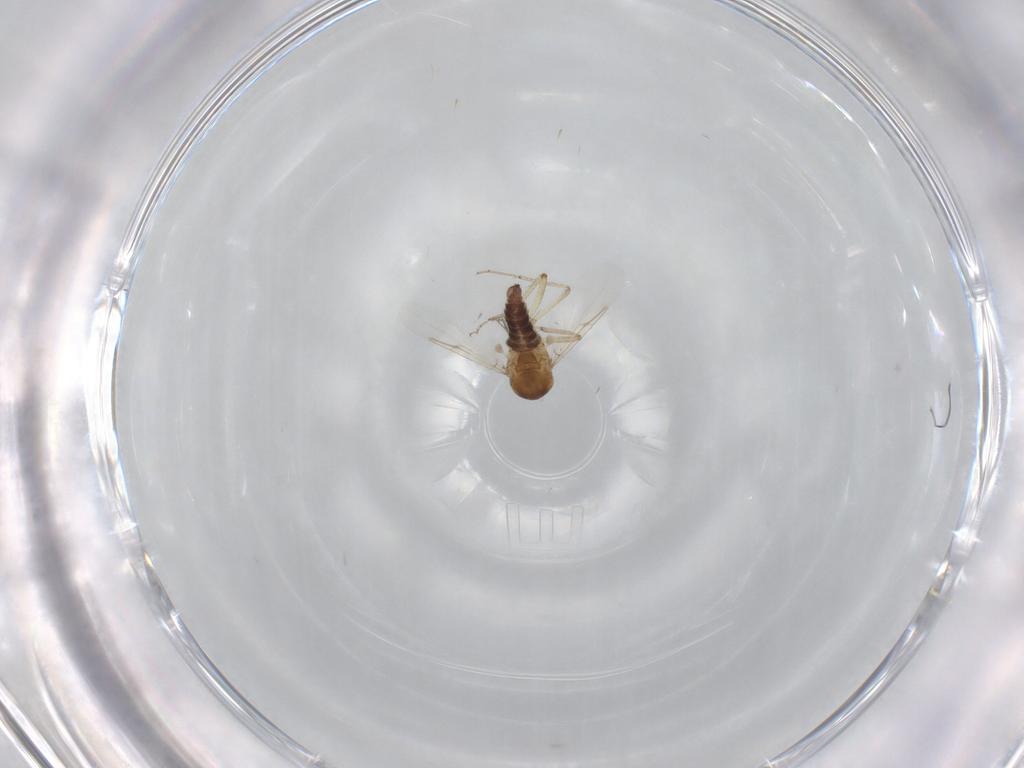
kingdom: Animalia
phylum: Arthropoda
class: Insecta
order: Diptera
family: Ceratopogonidae
